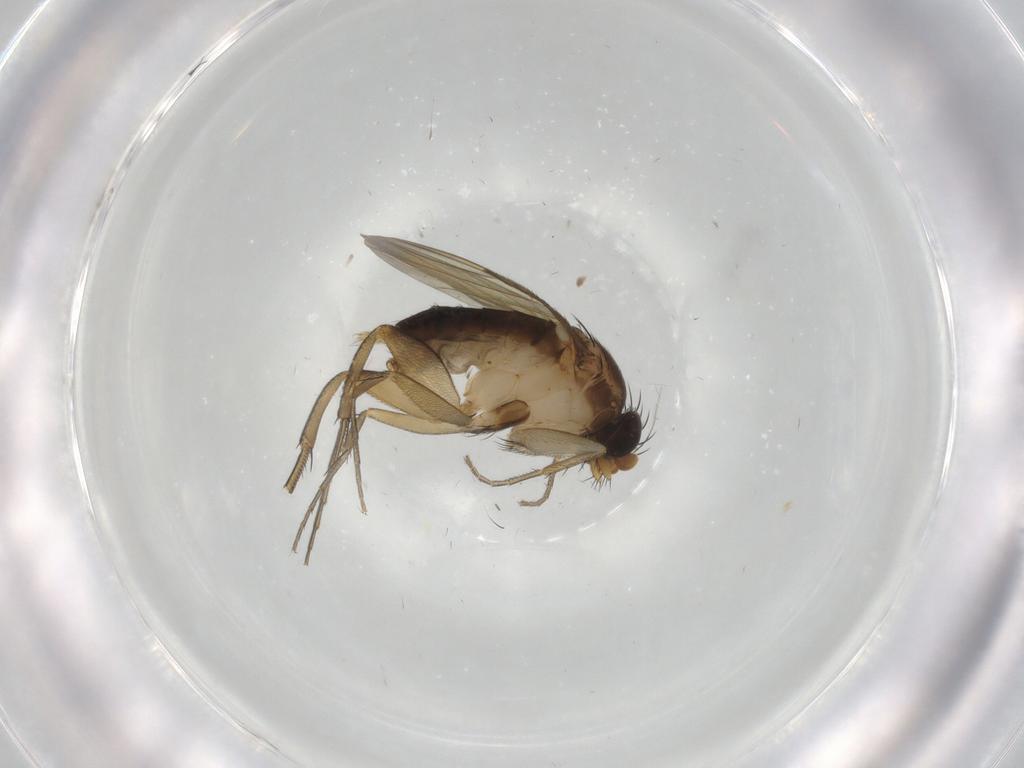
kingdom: Animalia
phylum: Arthropoda
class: Insecta
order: Diptera
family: Phoridae
